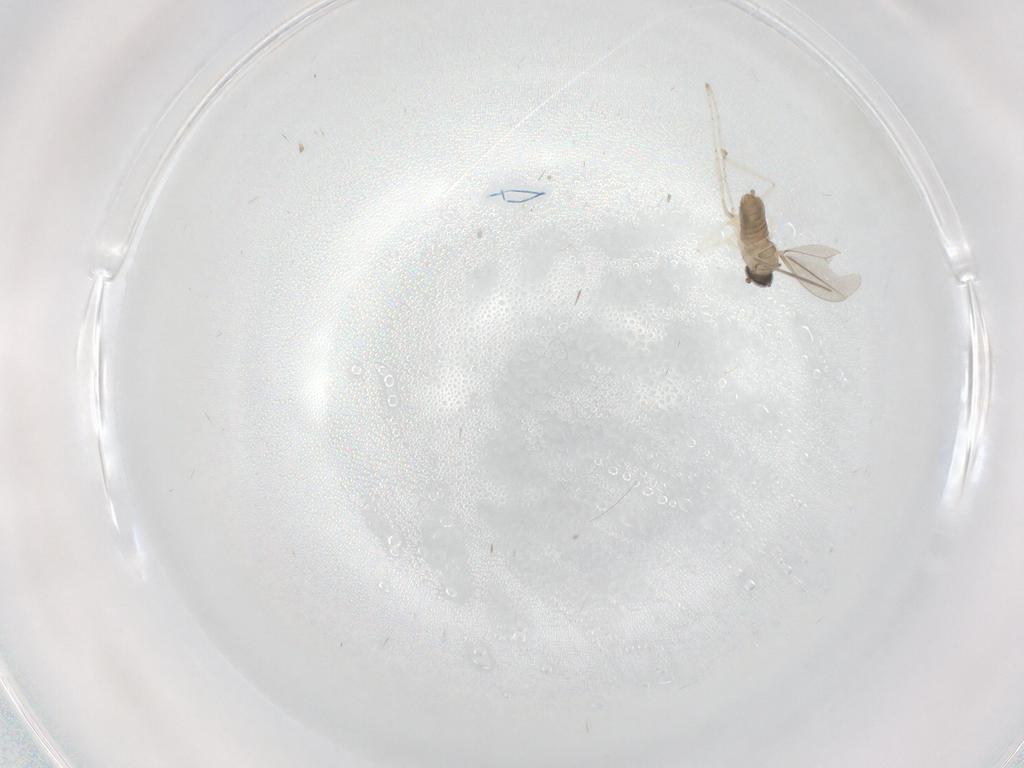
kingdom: Animalia
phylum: Arthropoda
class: Insecta
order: Diptera
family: Cecidomyiidae
